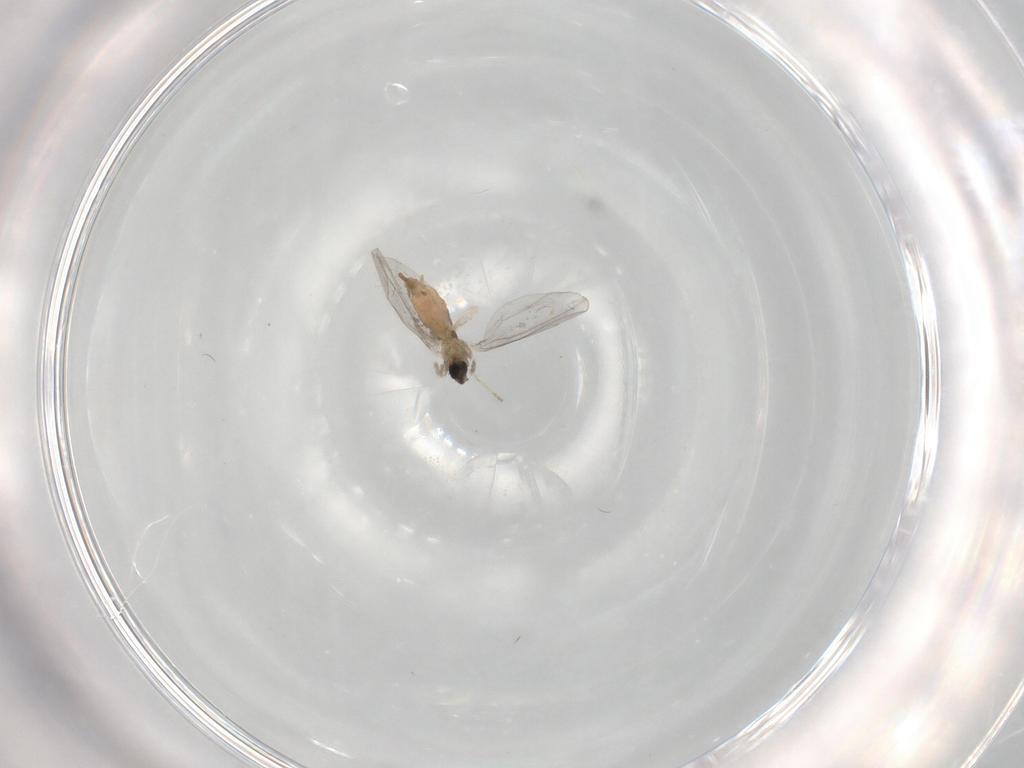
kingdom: Animalia
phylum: Arthropoda
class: Insecta
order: Diptera
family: Cecidomyiidae
